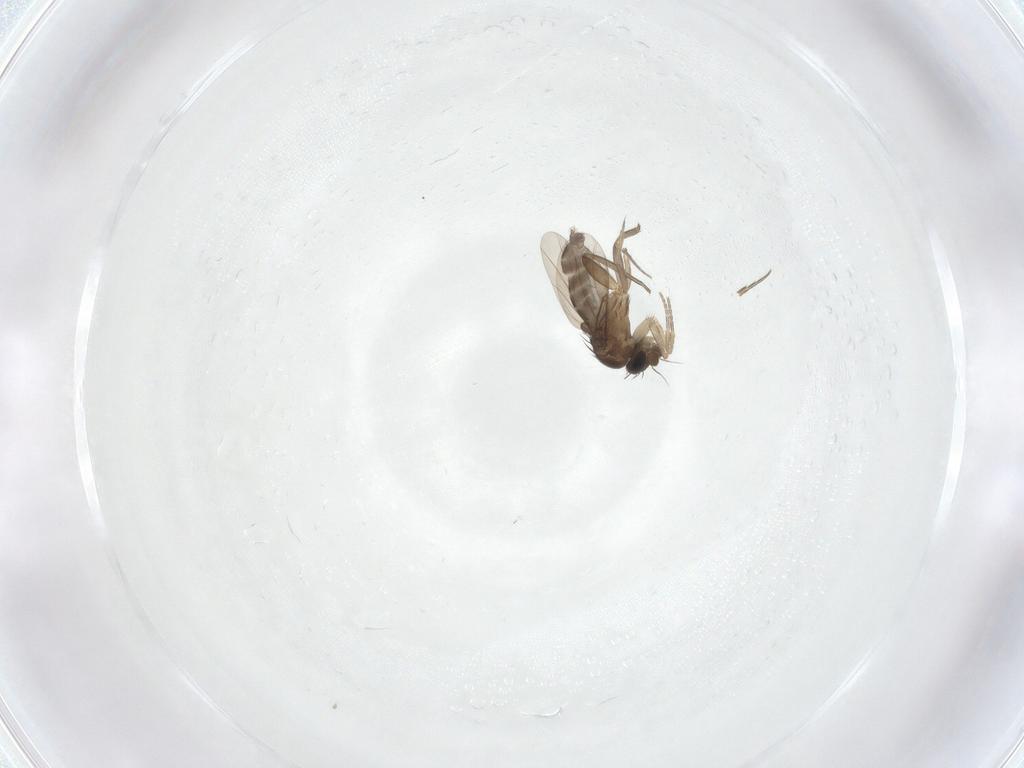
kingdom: Animalia
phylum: Arthropoda
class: Insecta
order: Diptera
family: Phoridae
